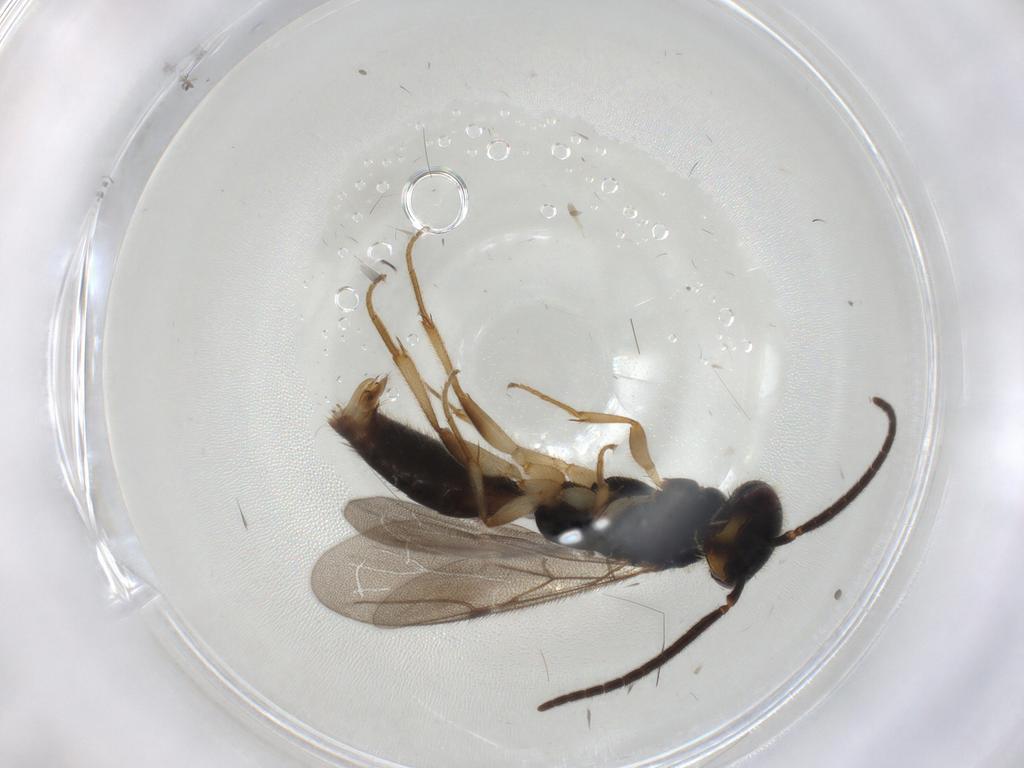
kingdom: Animalia
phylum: Arthropoda
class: Insecta
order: Hymenoptera
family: Bethylidae
